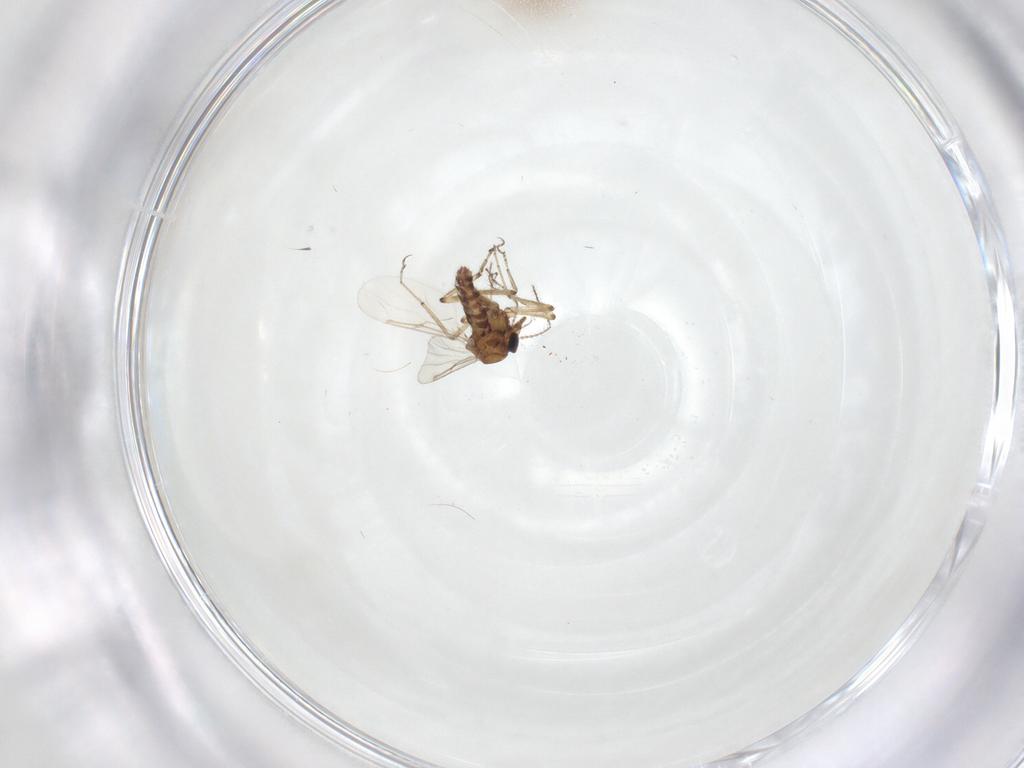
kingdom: Animalia
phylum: Arthropoda
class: Insecta
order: Diptera
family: Ceratopogonidae
